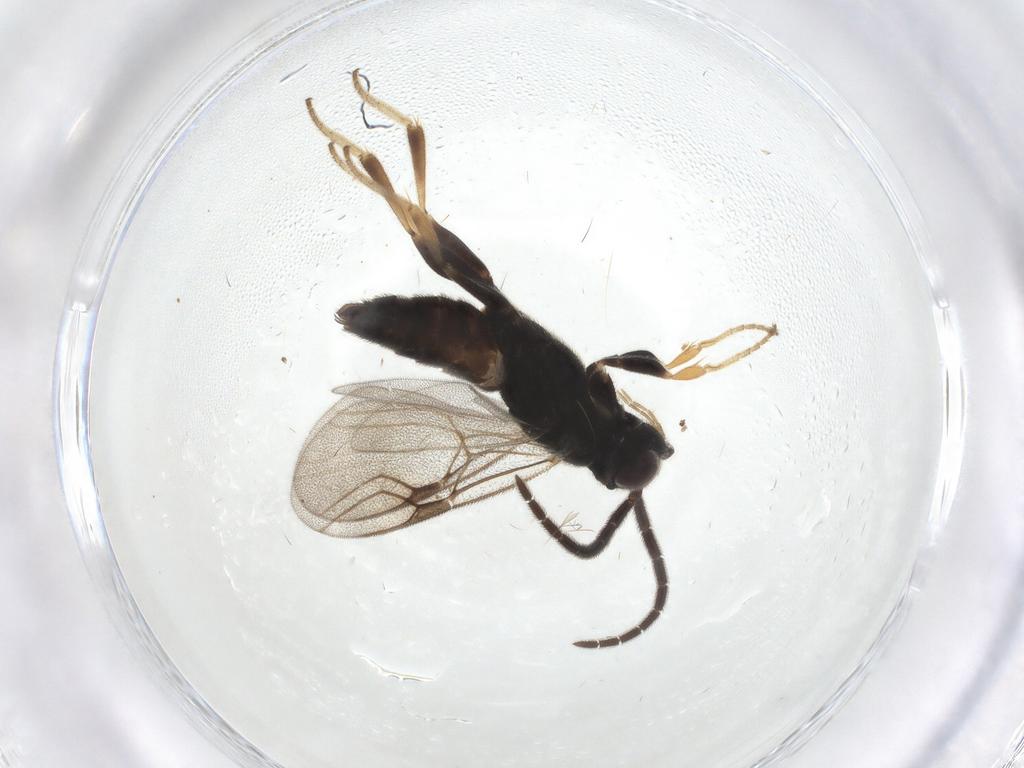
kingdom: Animalia
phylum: Arthropoda
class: Insecta
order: Hymenoptera
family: Dryinidae
